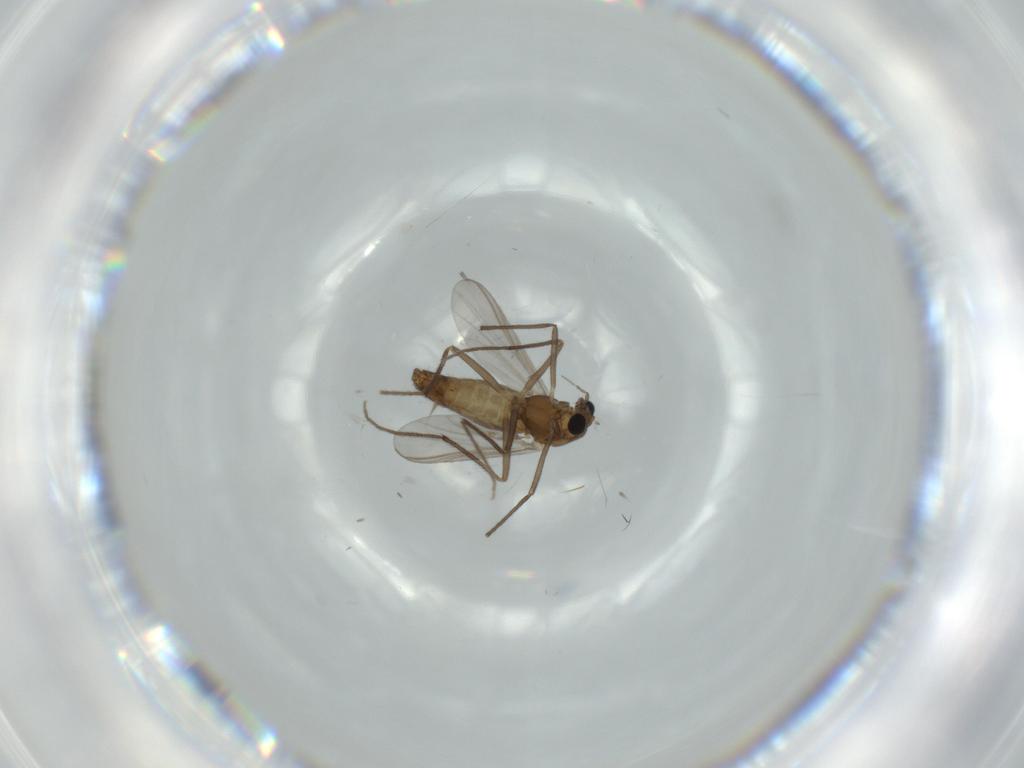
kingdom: Animalia
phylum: Arthropoda
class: Insecta
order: Diptera
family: Chironomidae
